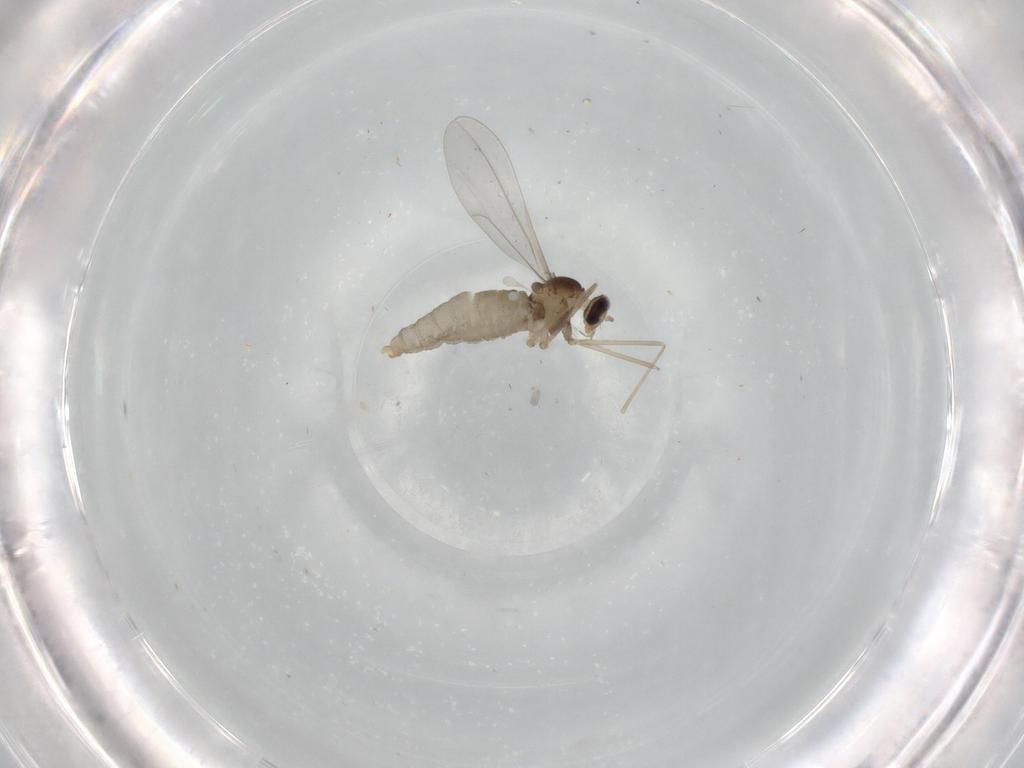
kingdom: Animalia
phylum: Arthropoda
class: Insecta
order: Diptera
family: Cecidomyiidae
